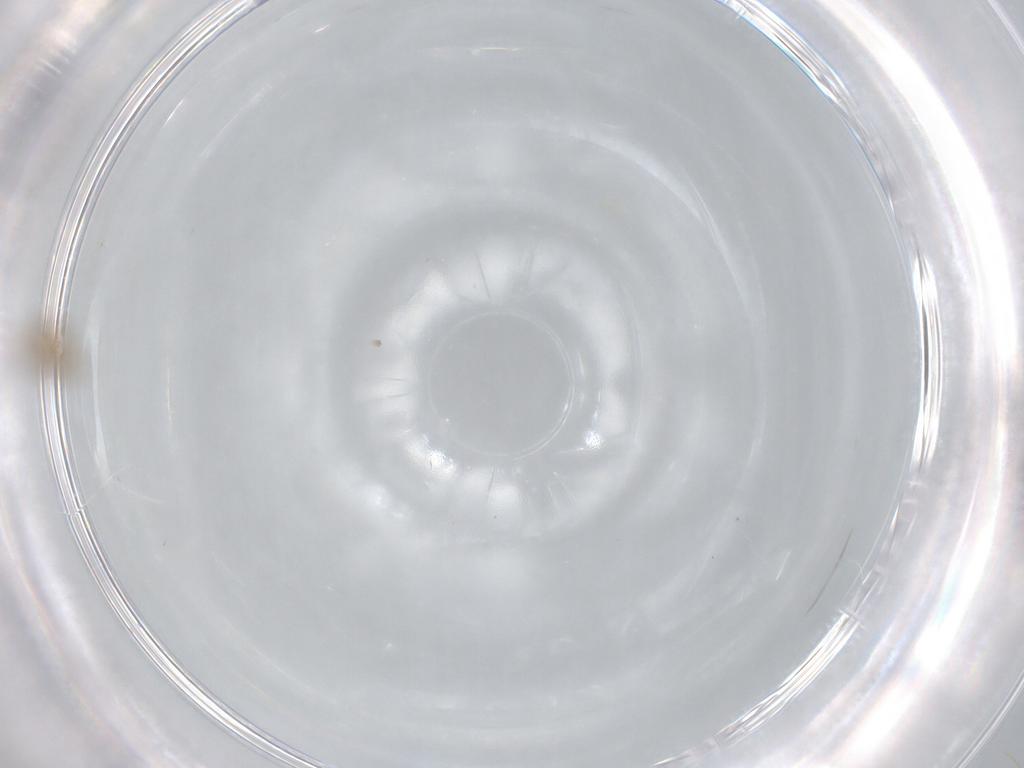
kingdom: Animalia
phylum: Arthropoda
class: Insecta
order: Diptera
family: Chironomidae
